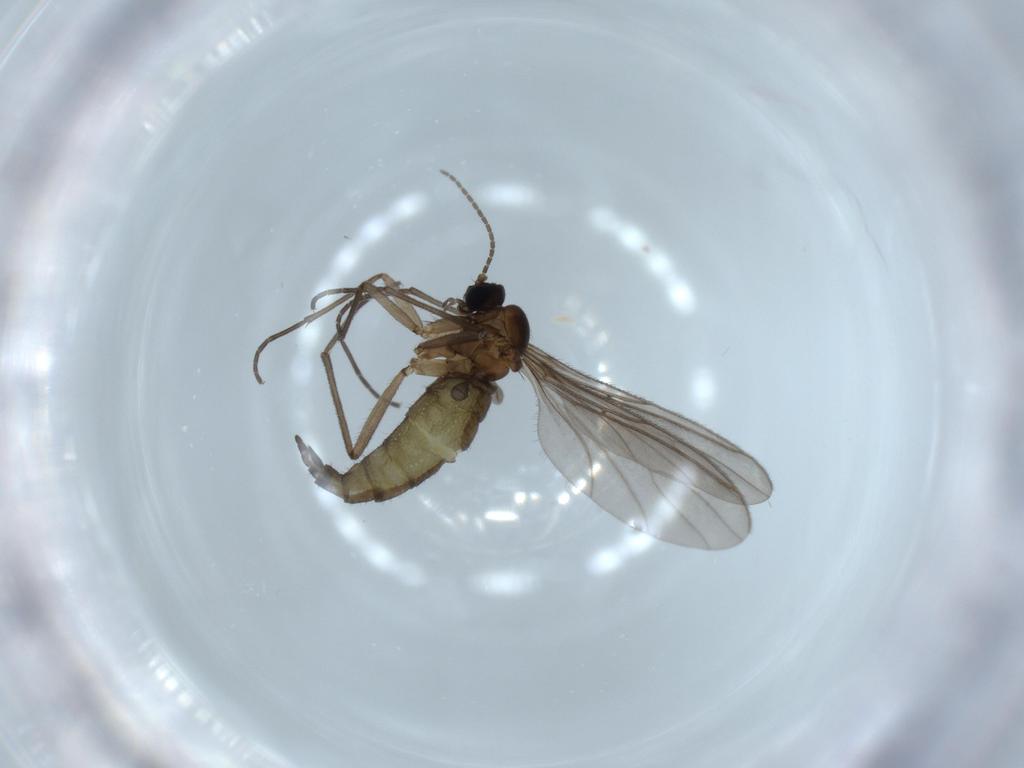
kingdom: Animalia
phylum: Arthropoda
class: Insecta
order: Diptera
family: Sciaridae
